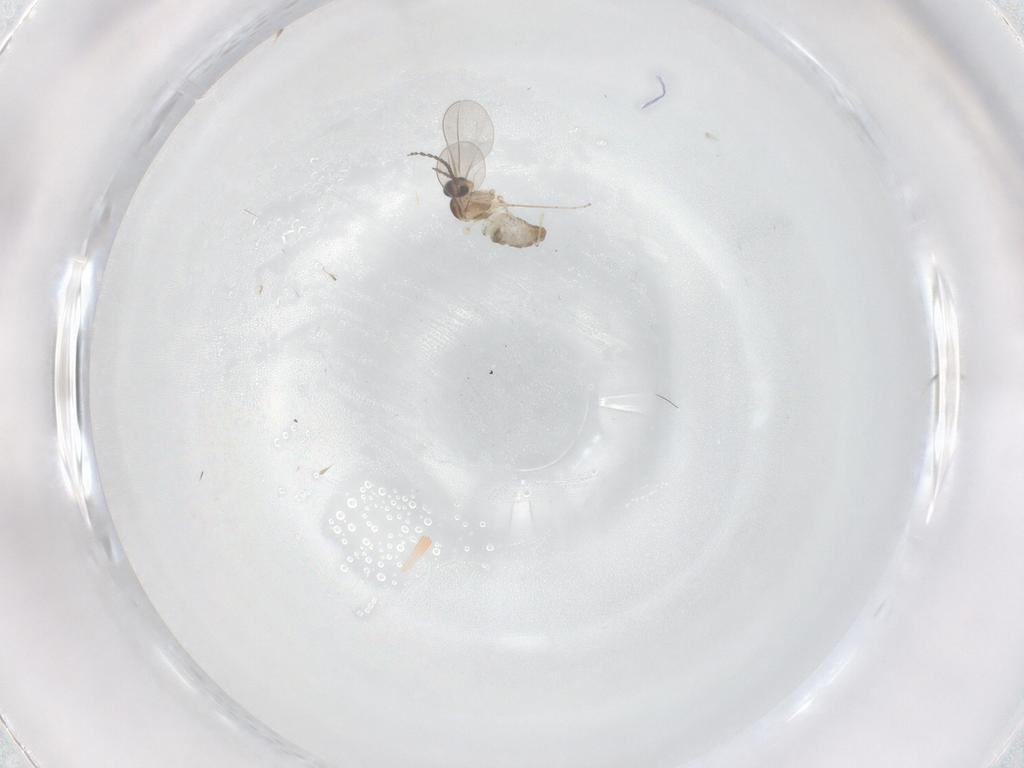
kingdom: Animalia
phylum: Arthropoda
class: Insecta
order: Diptera
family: Cecidomyiidae
